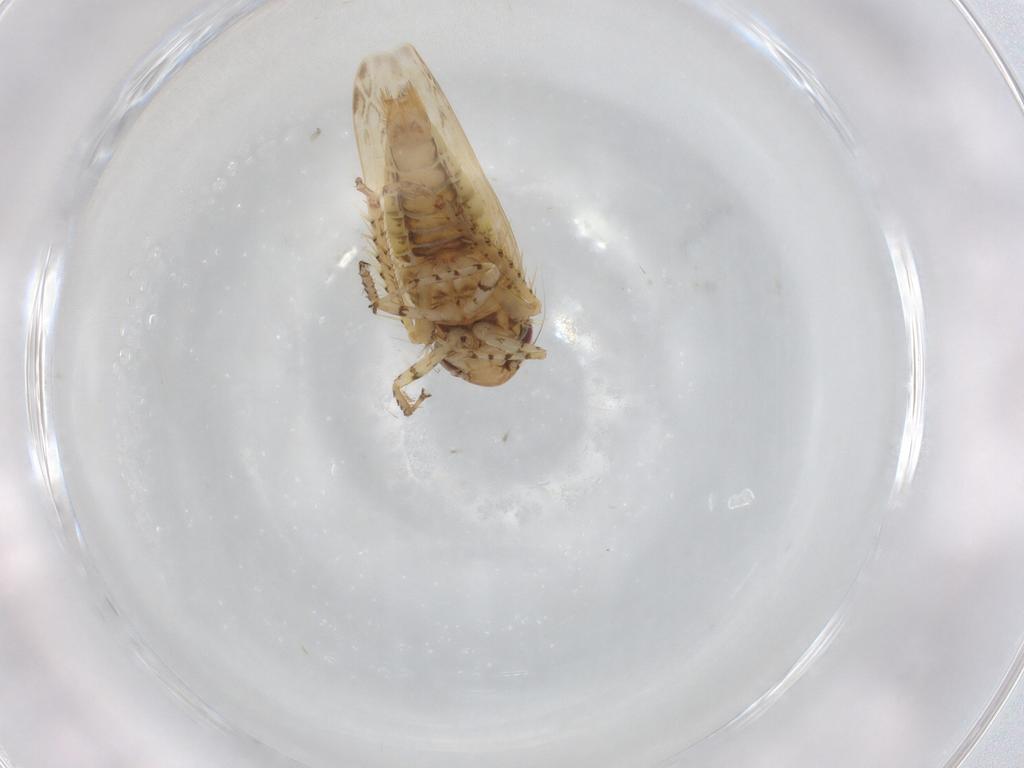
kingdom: Animalia
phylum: Arthropoda
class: Insecta
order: Hemiptera
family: Cicadellidae
